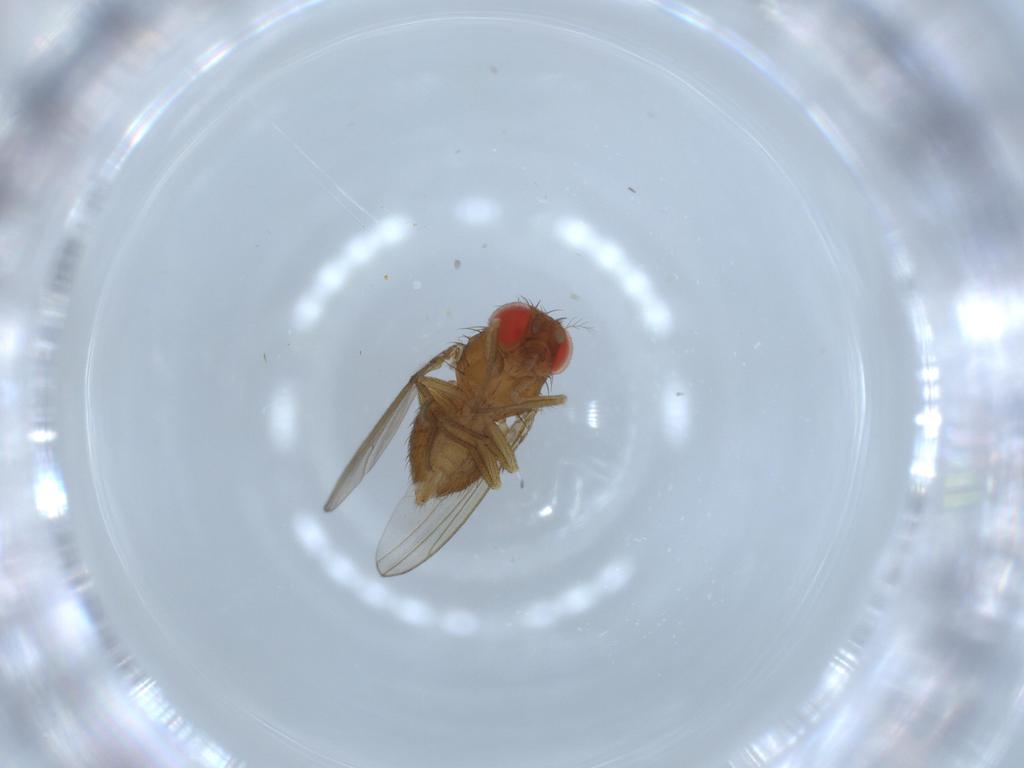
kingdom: Animalia
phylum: Arthropoda
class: Insecta
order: Diptera
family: Drosophilidae
